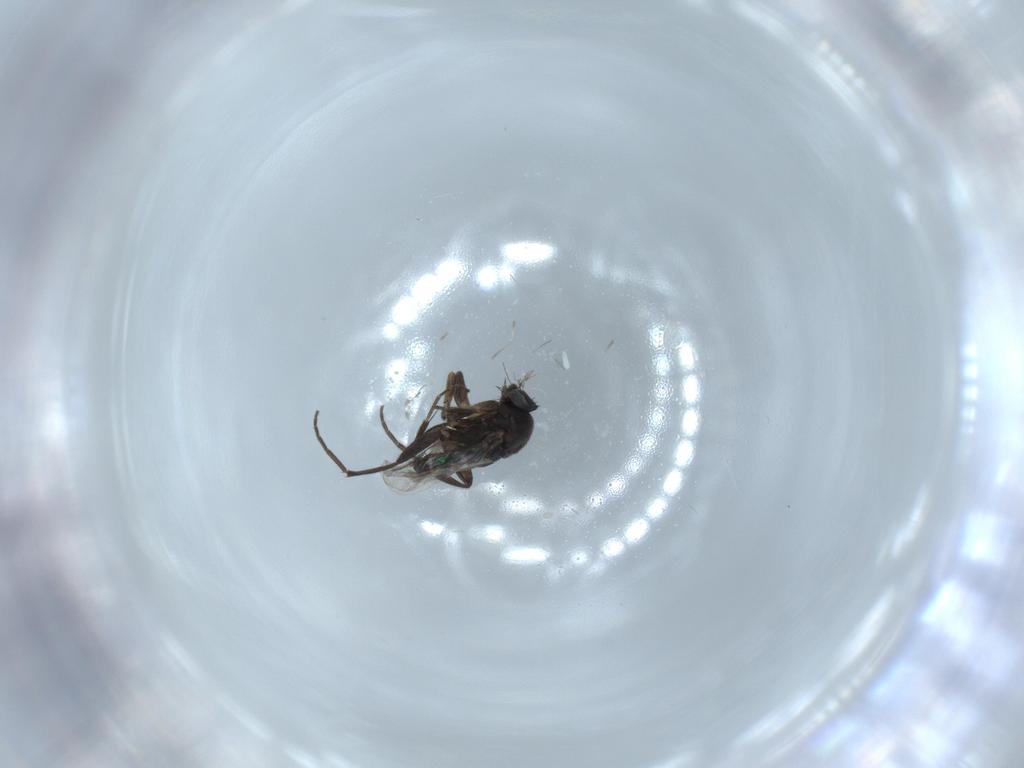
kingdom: Animalia
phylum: Arthropoda
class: Insecta
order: Diptera
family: Phoridae
